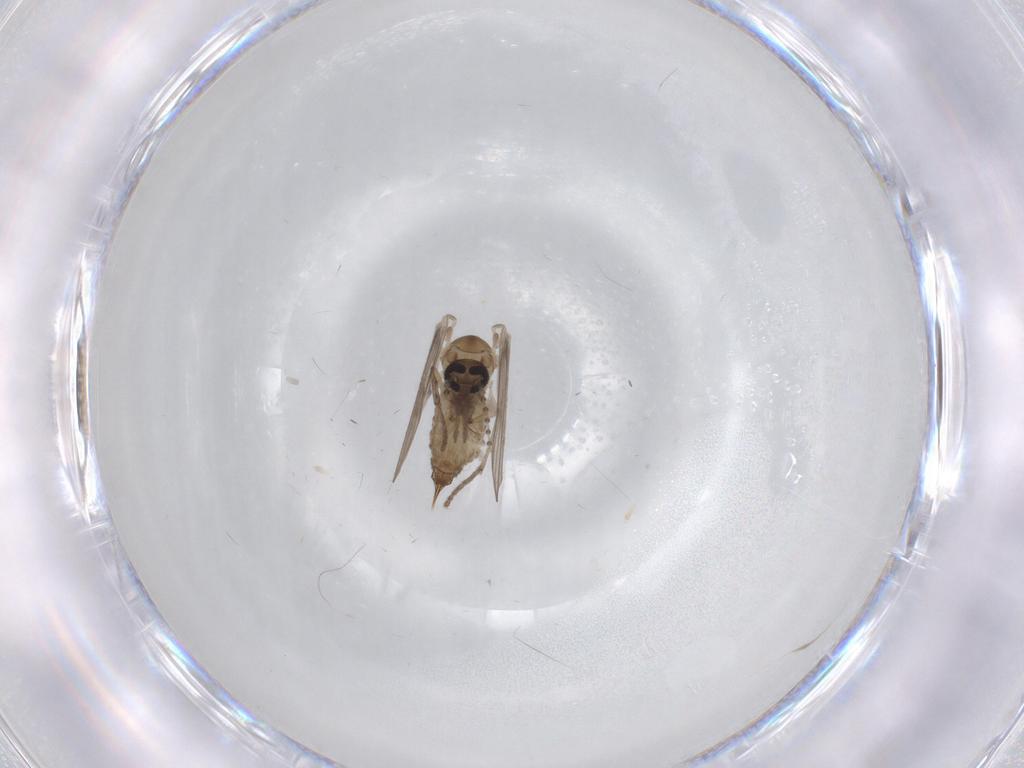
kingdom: Animalia
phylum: Arthropoda
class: Insecta
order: Diptera
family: Psychodidae
